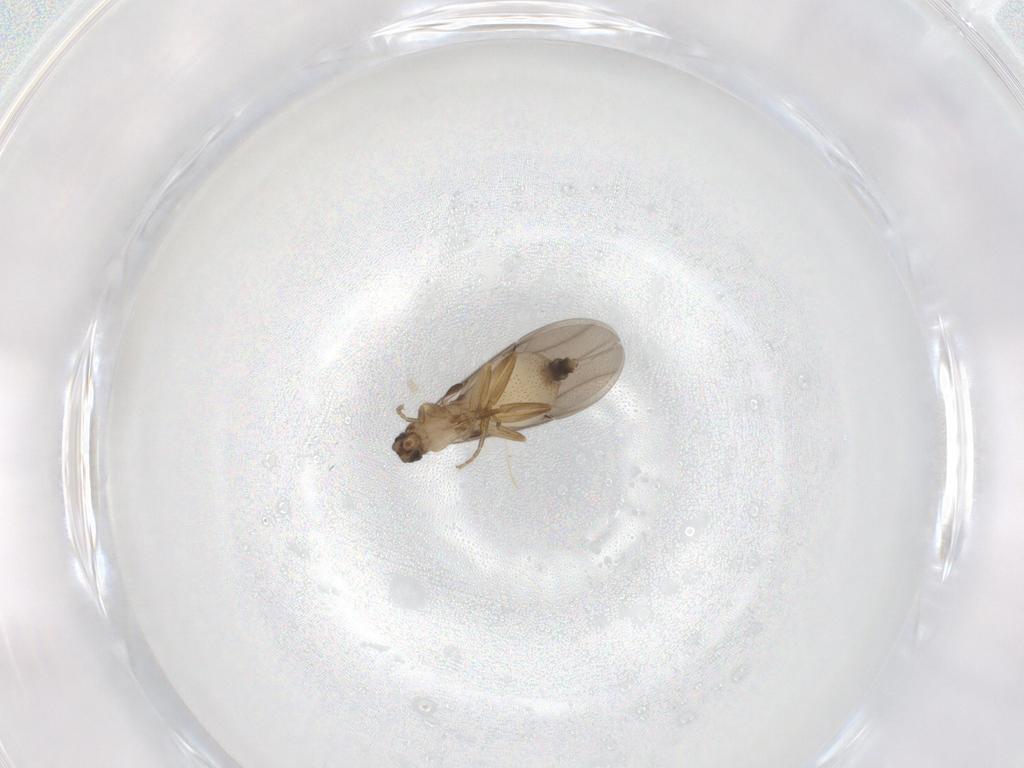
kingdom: Animalia
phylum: Arthropoda
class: Insecta
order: Diptera
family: Phoridae
